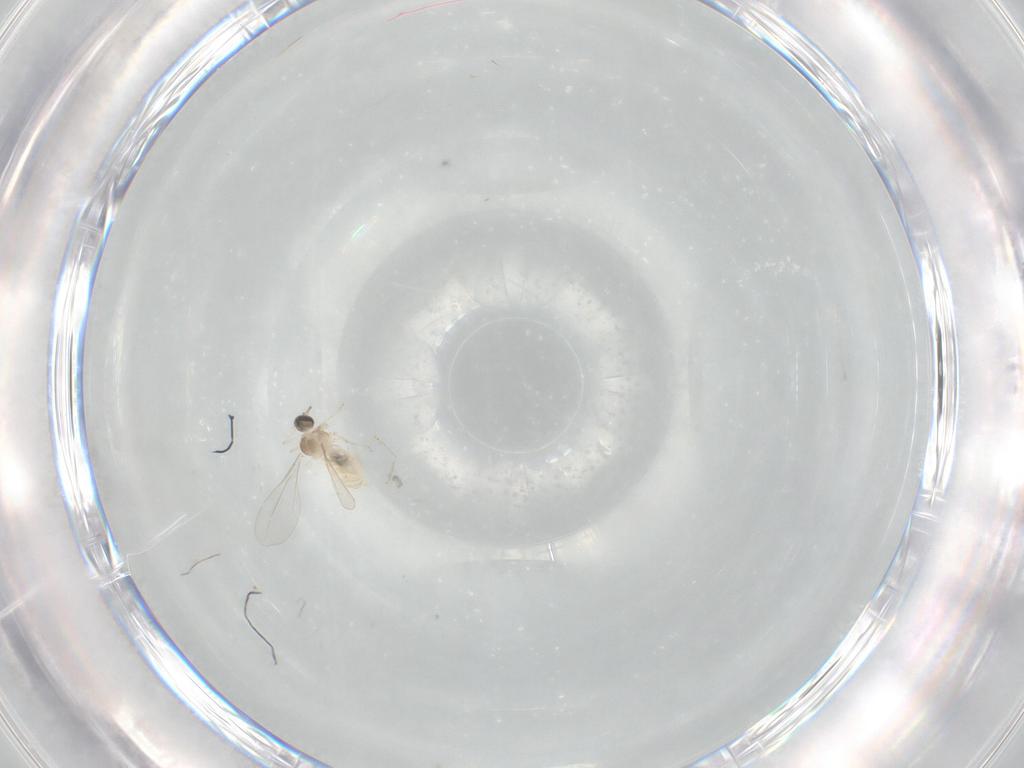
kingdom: Animalia
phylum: Arthropoda
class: Insecta
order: Diptera
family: Cecidomyiidae
